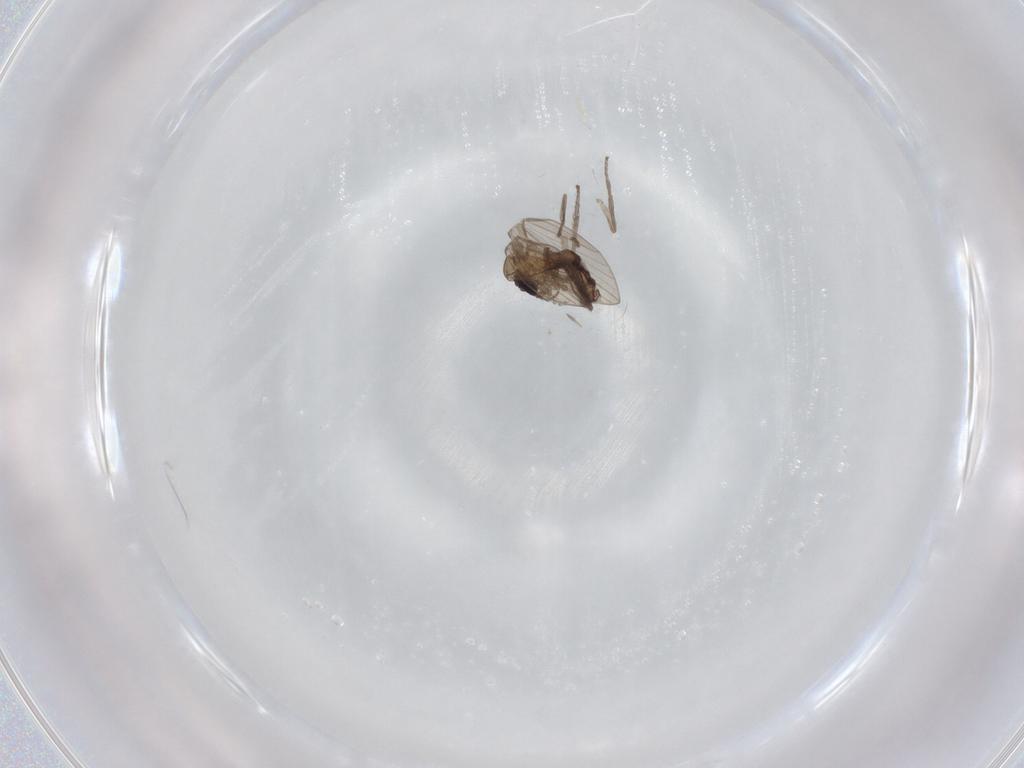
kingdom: Animalia
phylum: Arthropoda
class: Insecta
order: Diptera
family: Psychodidae
